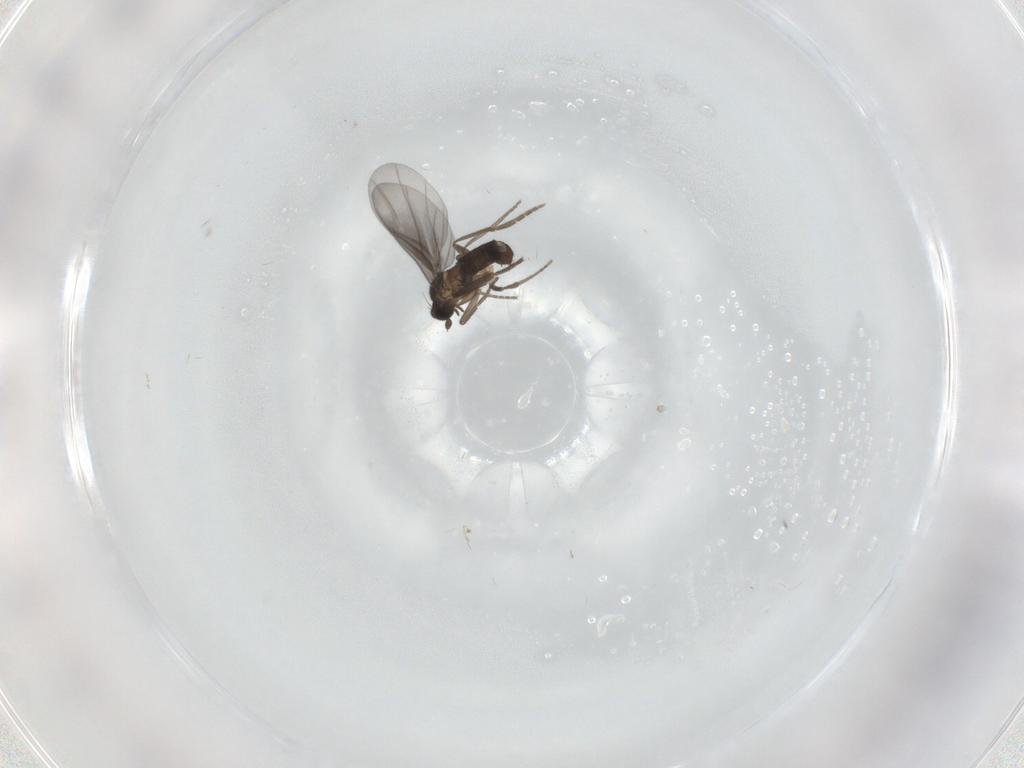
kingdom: Animalia
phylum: Arthropoda
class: Insecta
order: Diptera
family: Cecidomyiidae
